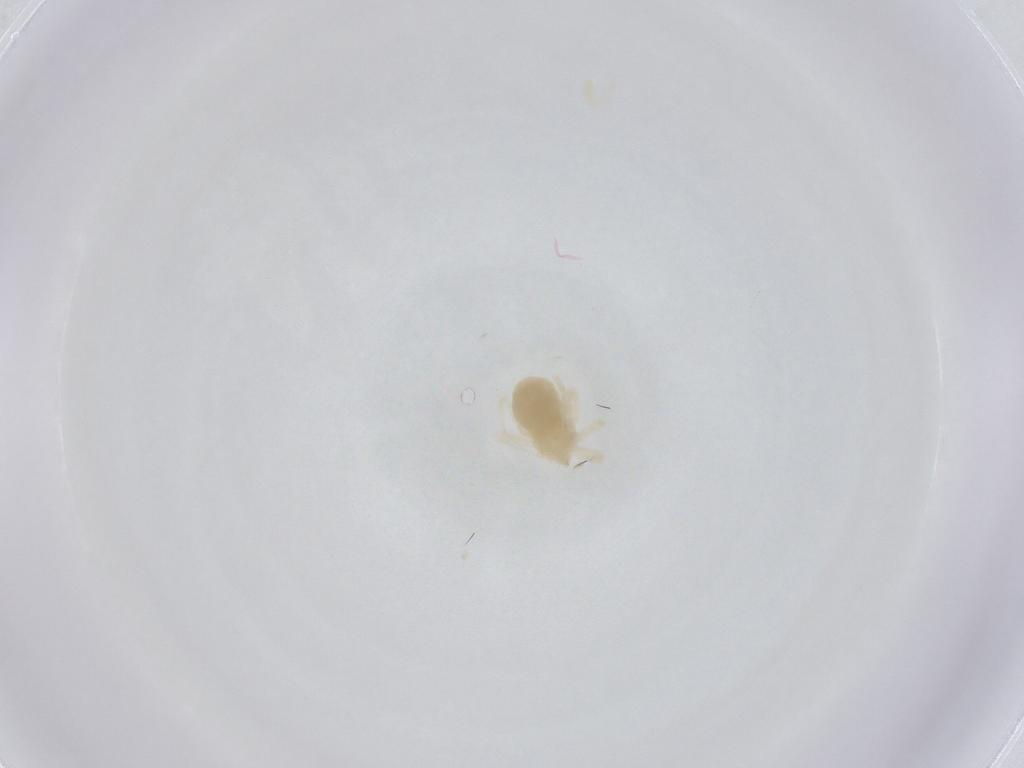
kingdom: Animalia
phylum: Arthropoda
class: Arachnida
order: Trombidiformes
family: Anystidae
